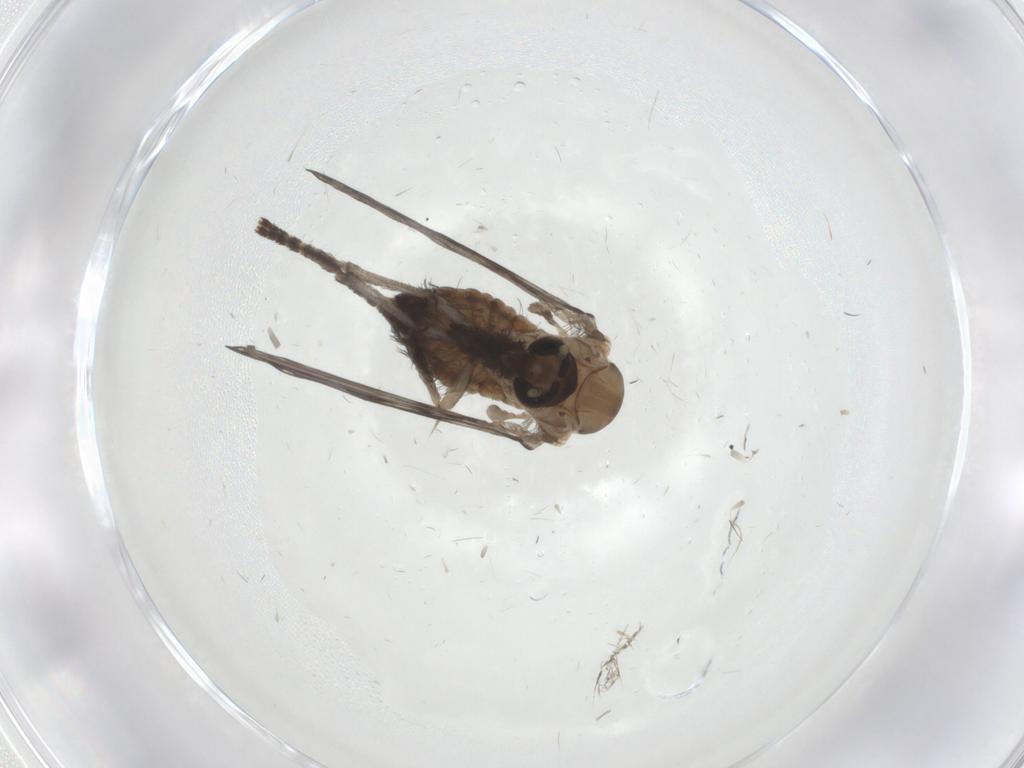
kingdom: Animalia
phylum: Arthropoda
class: Insecta
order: Diptera
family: Psychodidae
